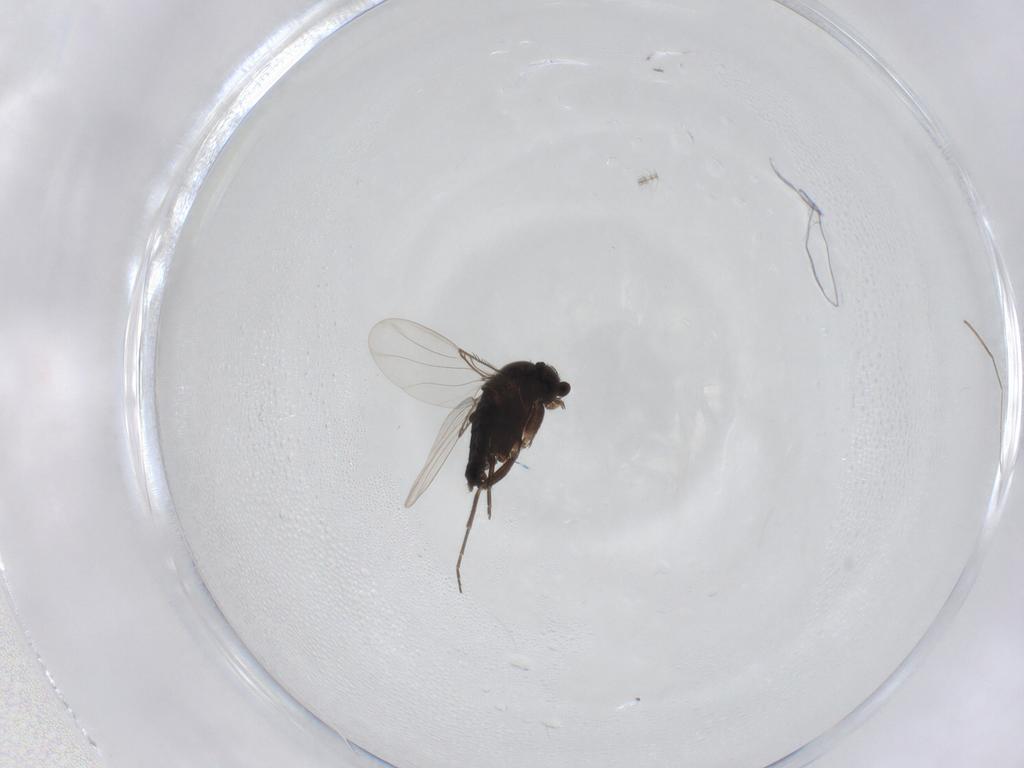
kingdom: Animalia
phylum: Arthropoda
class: Insecta
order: Diptera
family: Phoridae
